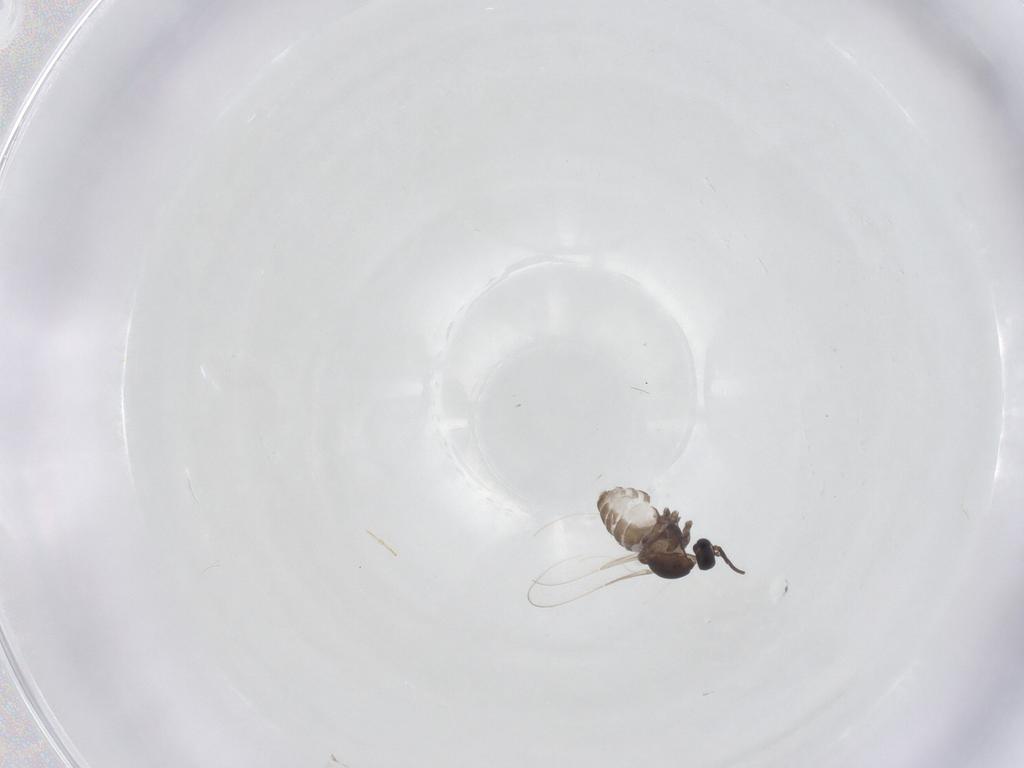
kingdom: Animalia
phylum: Arthropoda
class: Insecta
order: Diptera
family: Cecidomyiidae
